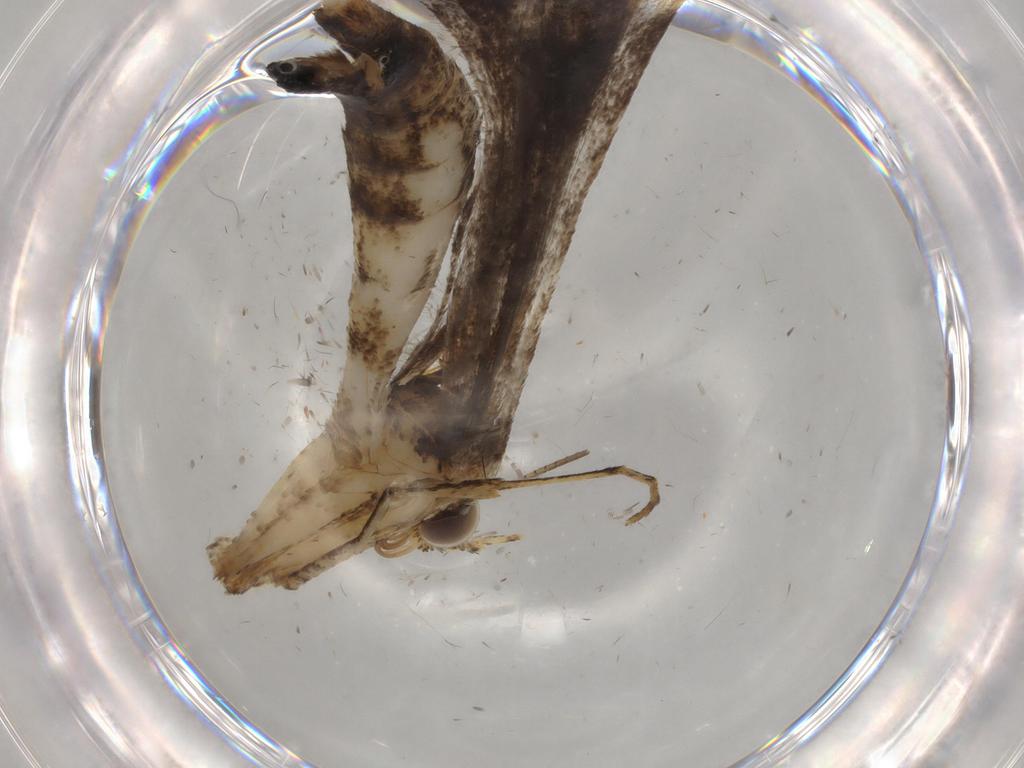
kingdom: Animalia
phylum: Arthropoda
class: Insecta
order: Lepidoptera
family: Pterophoridae
